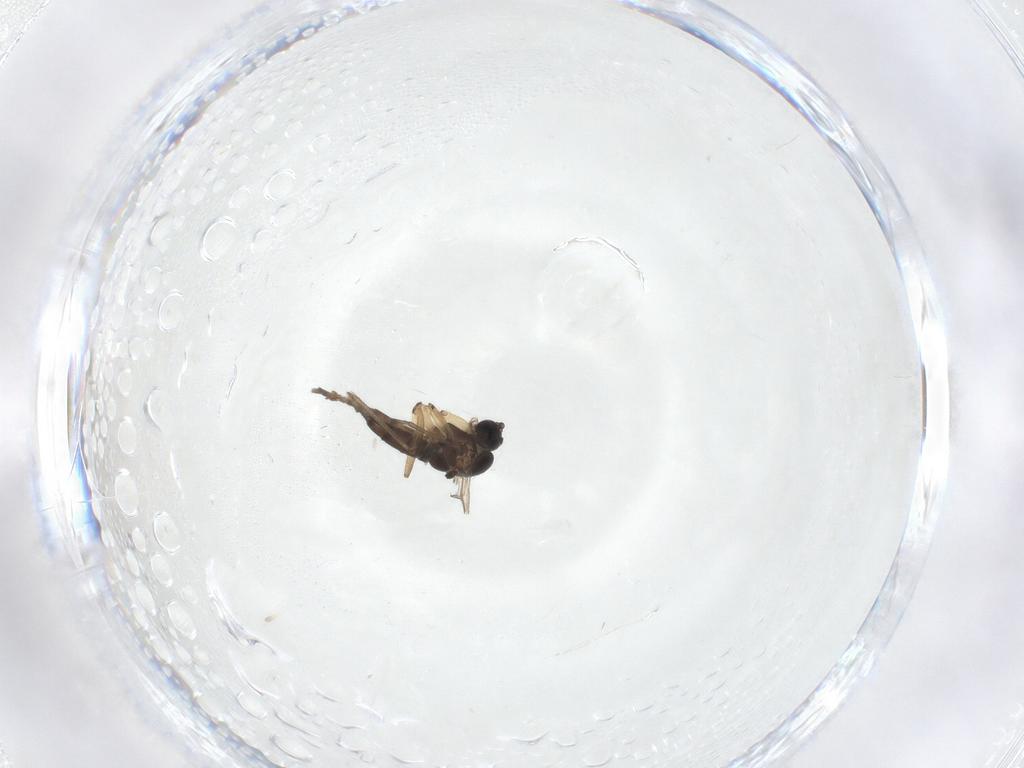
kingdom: Animalia
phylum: Arthropoda
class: Insecta
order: Diptera
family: Sciaridae
